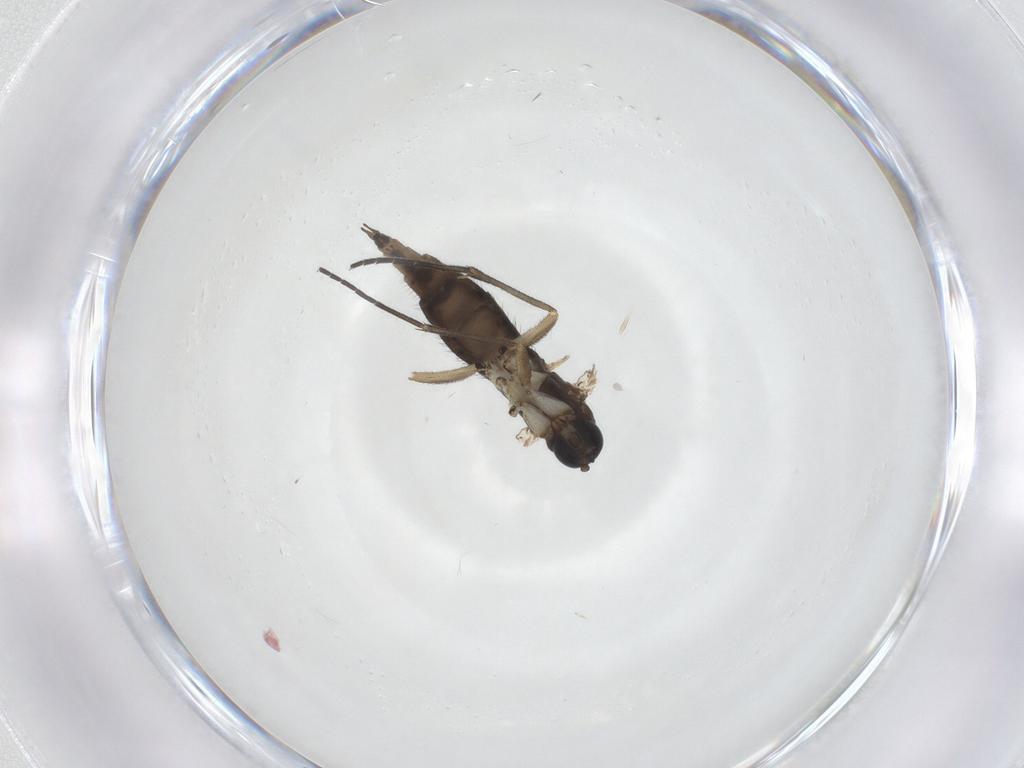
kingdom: Animalia
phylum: Arthropoda
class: Insecta
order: Diptera
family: Sciaridae
